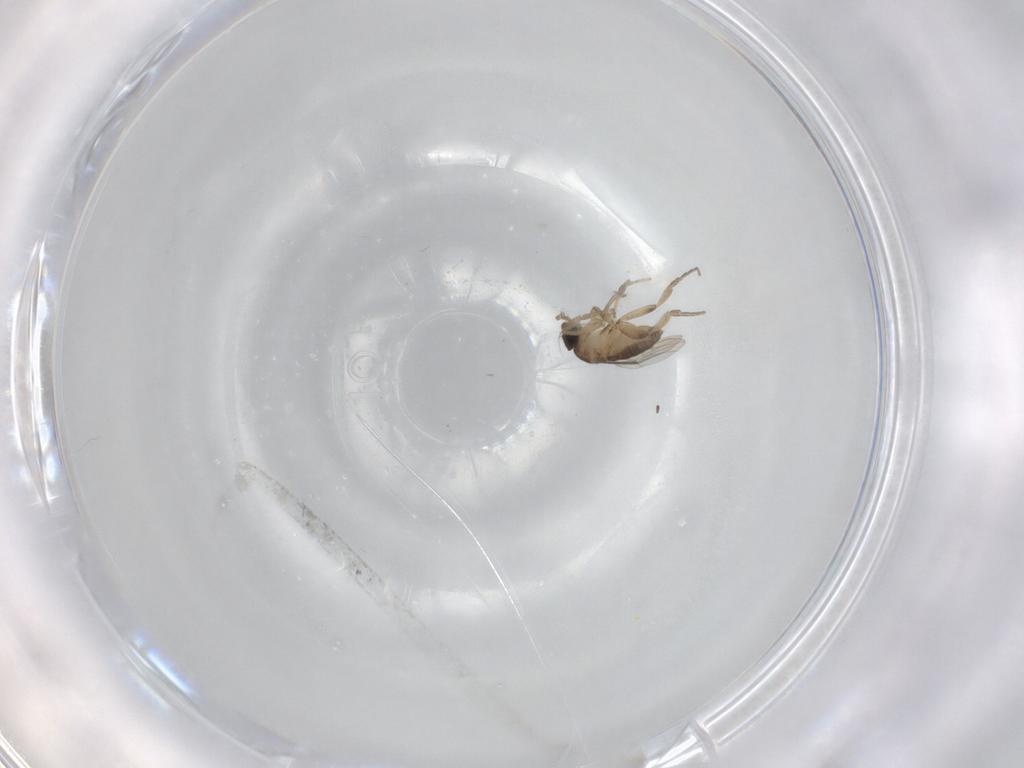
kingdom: Animalia
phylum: Arthropoda
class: Insecta
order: Diptera
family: Phoridae
